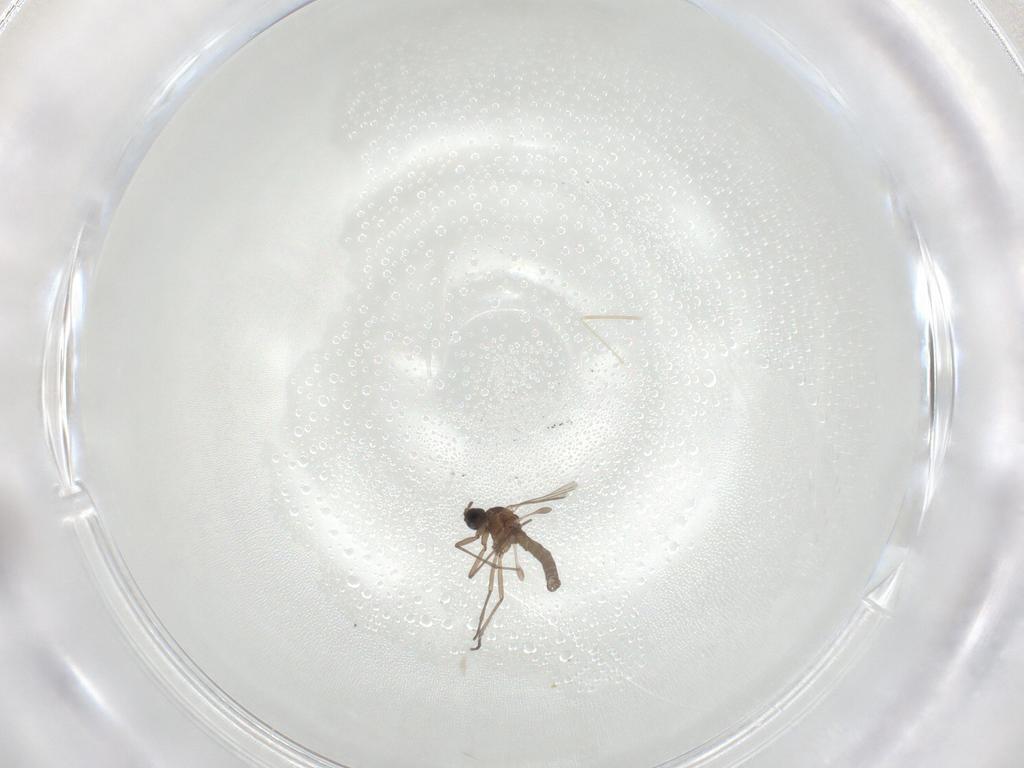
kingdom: Animalia
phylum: Arthropoda
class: Insecta
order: Diptera
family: Sciaridae
